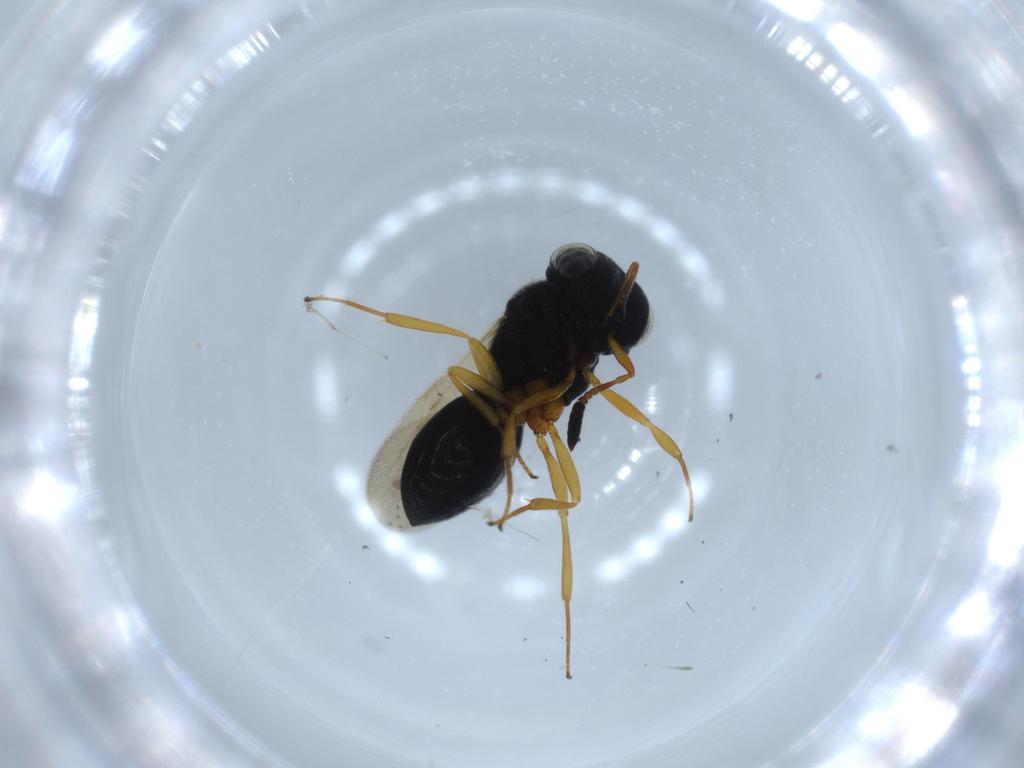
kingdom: Animalia
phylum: Arthropoda
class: Insecta
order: Hymenoptera
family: Scelionidae
